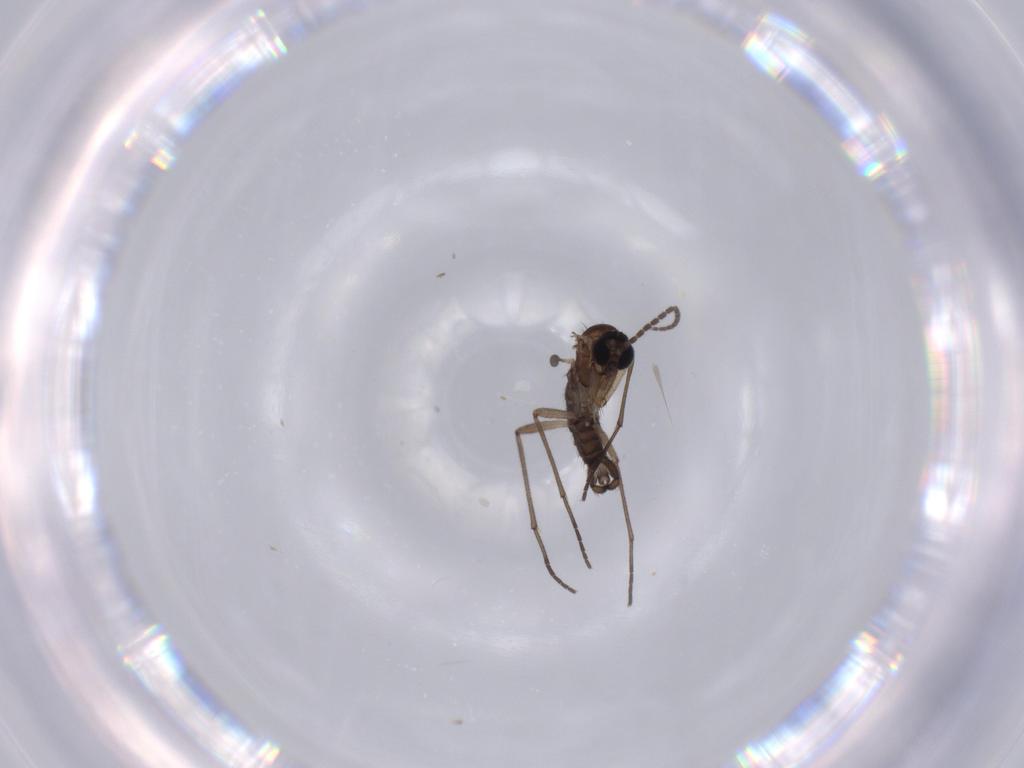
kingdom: Animalia
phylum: Arthropoda
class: Insecta
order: Diptera
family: Sciaridae
